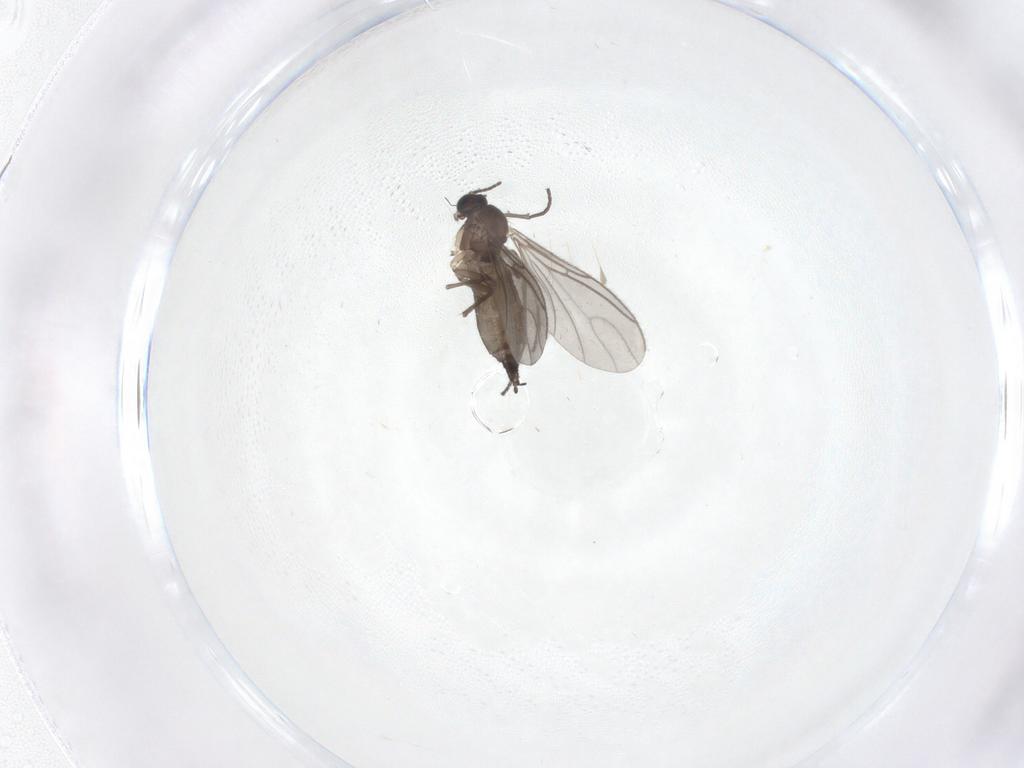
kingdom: Animalia
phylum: Arthropoda
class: Insecta
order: Diptera
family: Sciaridae
